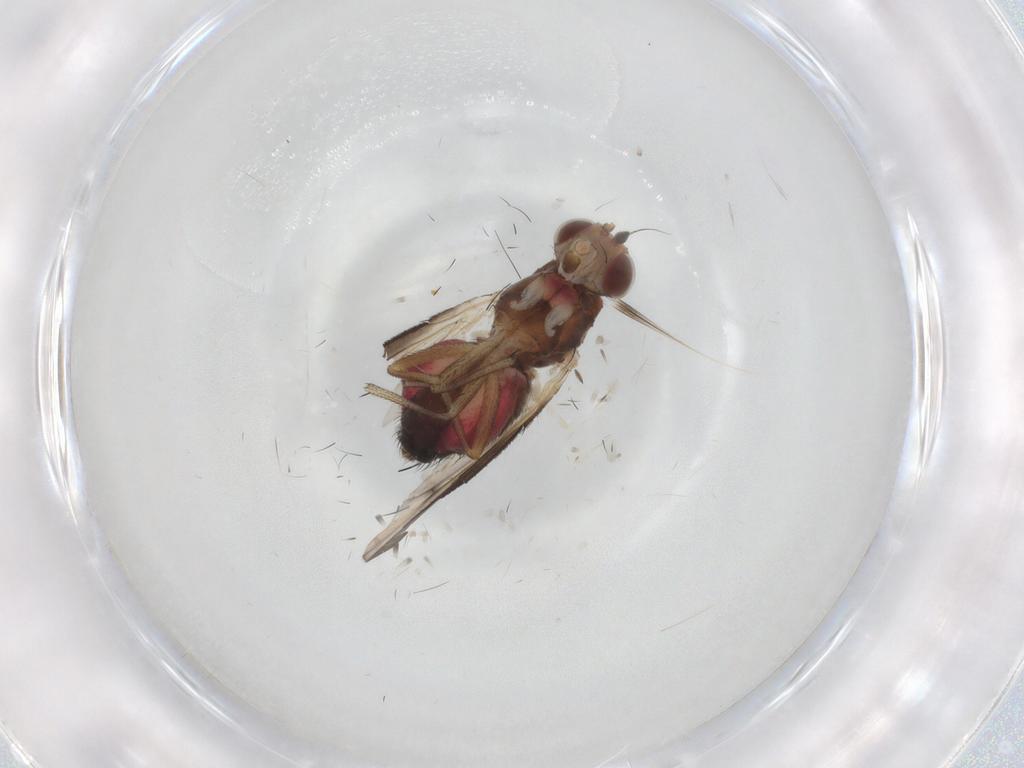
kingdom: Animalia
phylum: Arthropoda
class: Insecta
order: Diptera
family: Heleomyzidae
